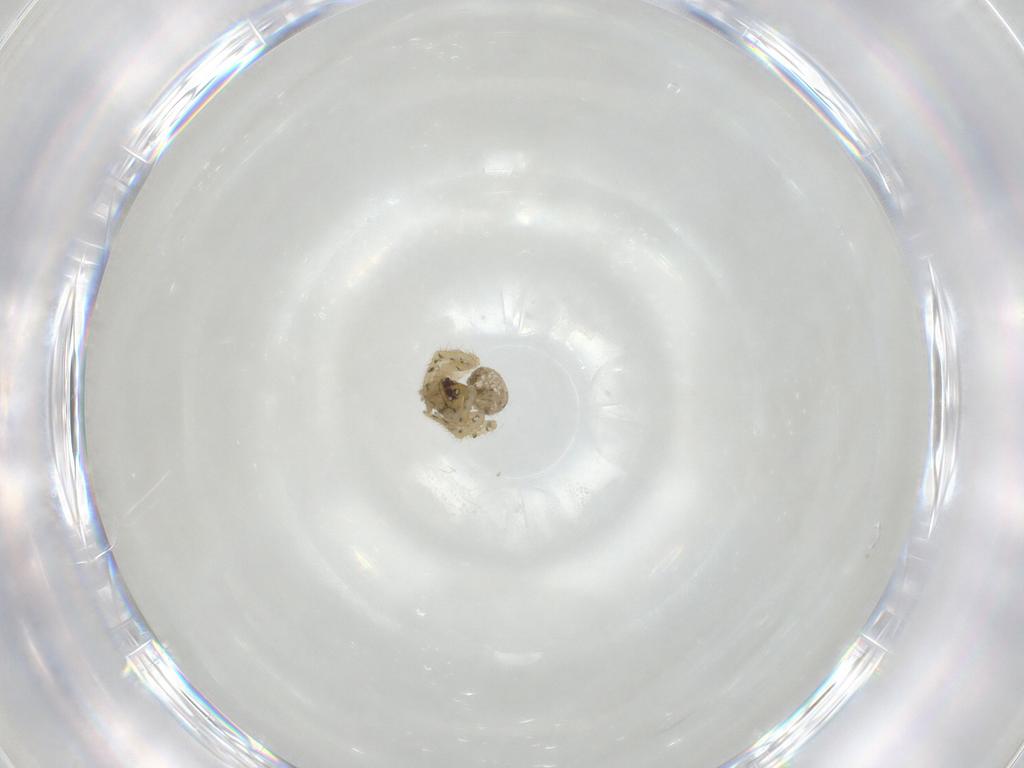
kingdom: Animalia
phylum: Arthropoda
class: Arachnida
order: Araneae
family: Theridiidae
